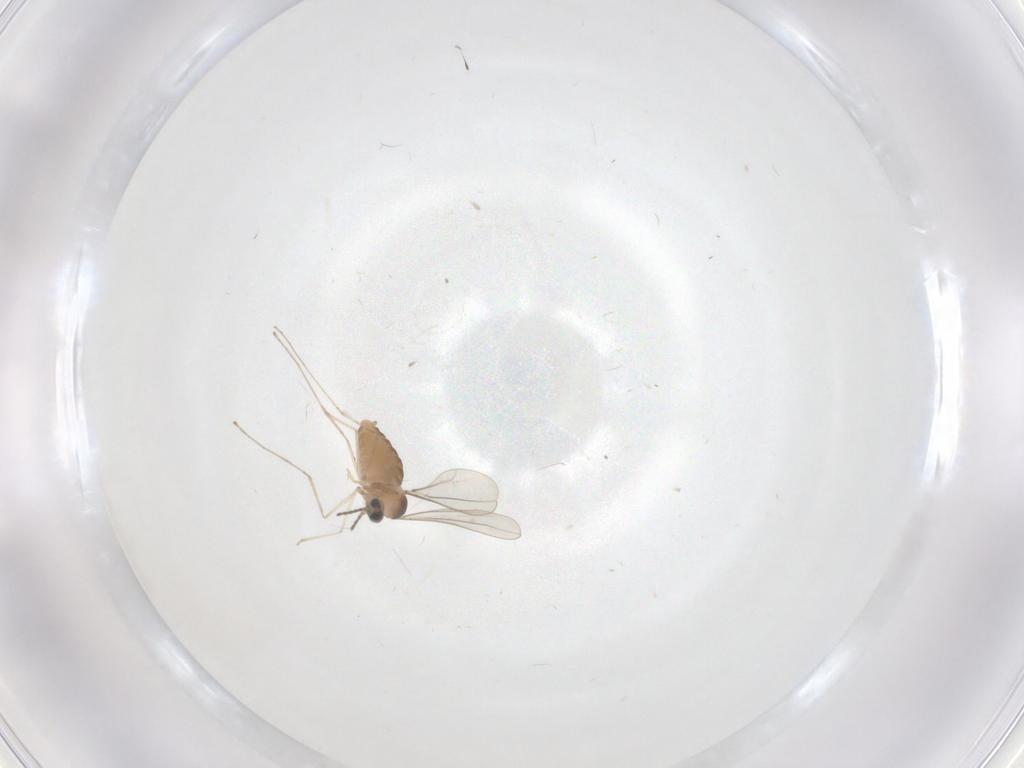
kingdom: Animalia
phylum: Arthropoda
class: Insecta
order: Diptera
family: Cecidomyiidae
